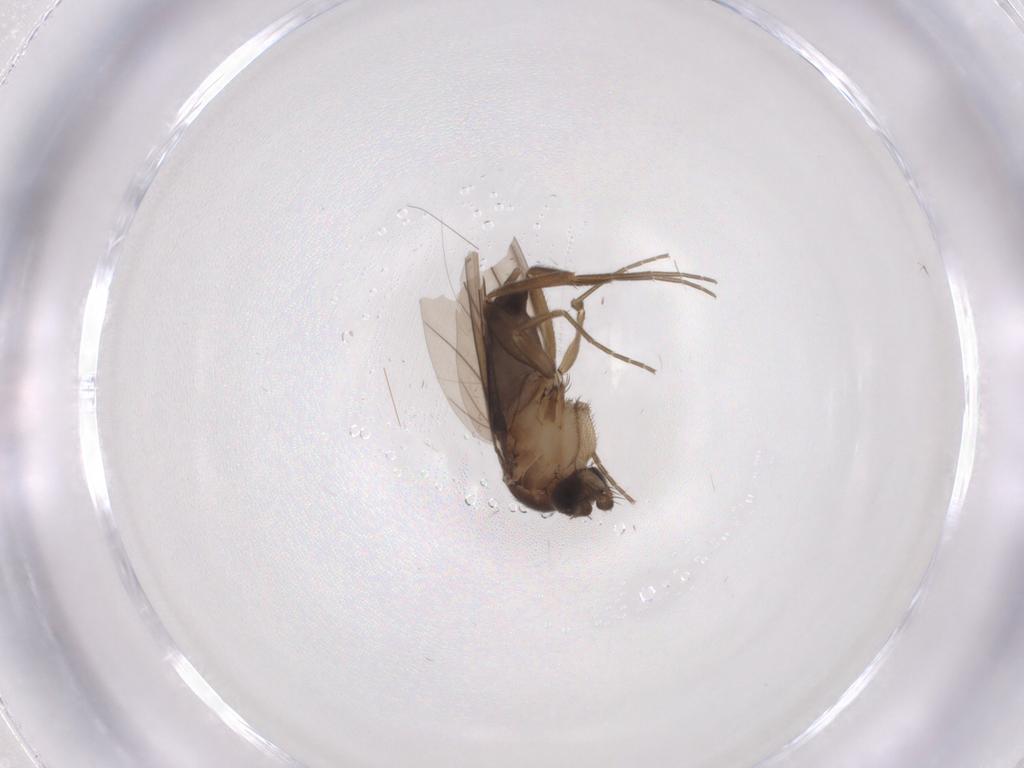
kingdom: Animalia
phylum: Arthropoda
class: Insecta
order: Diptera
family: Phoridae
